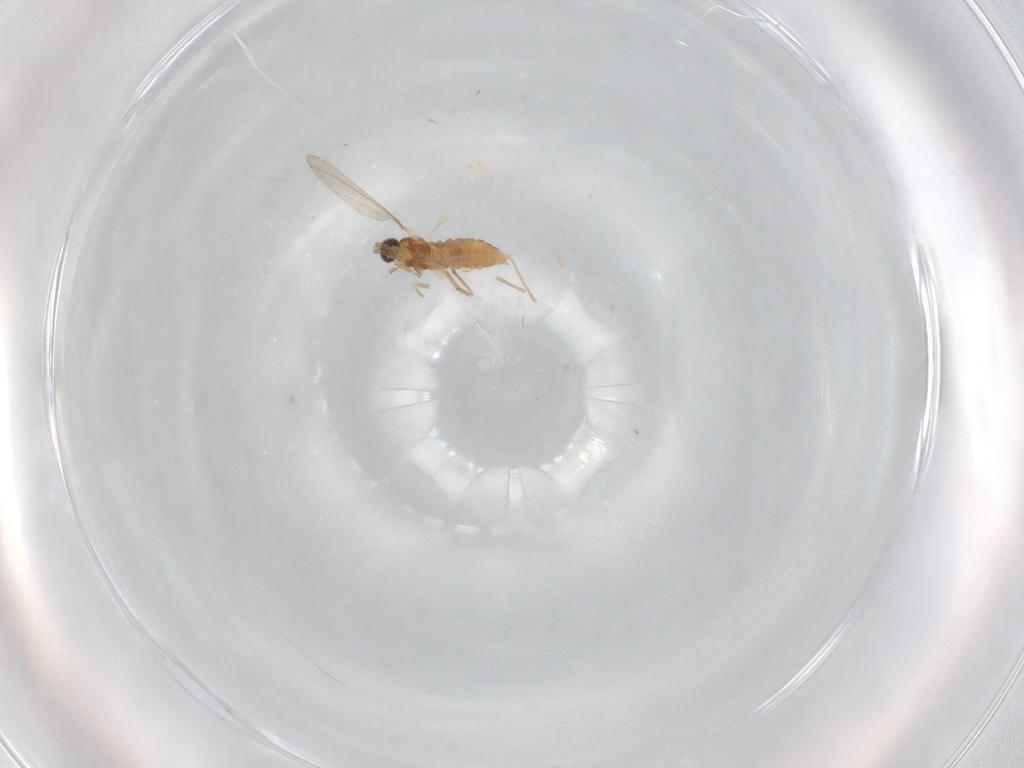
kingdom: Animalia
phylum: Arthropoda
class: Insecta
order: Diptera
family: Cecidomyiidae
